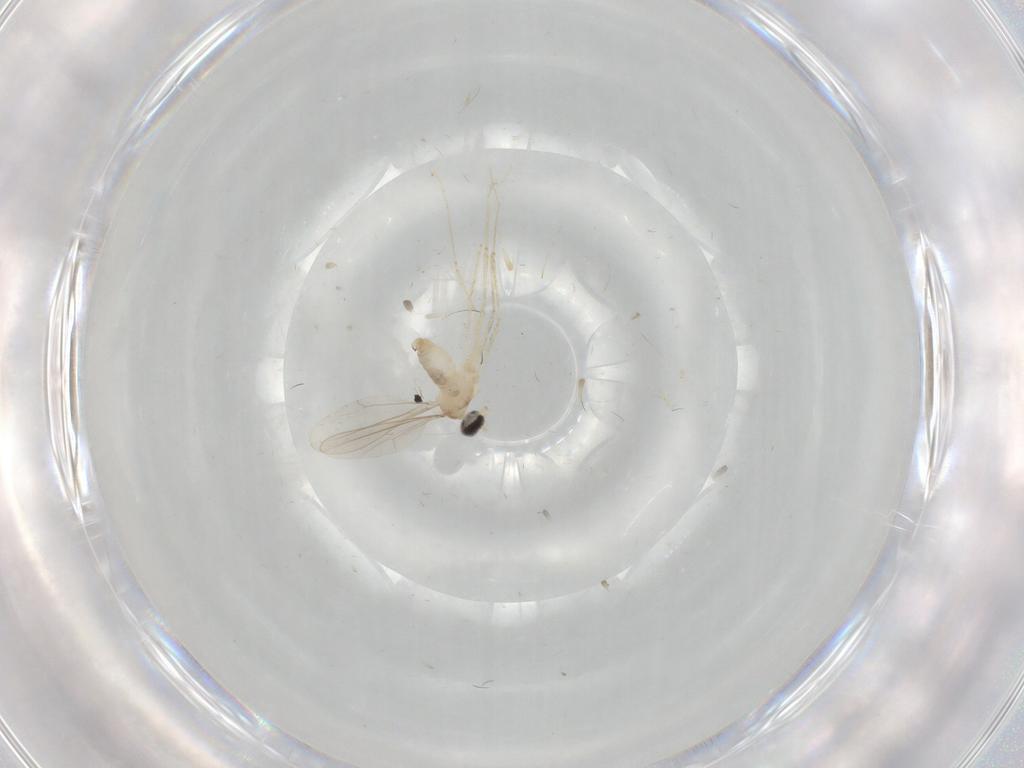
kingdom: Animalia
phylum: Arthropoda
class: Insecta
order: Diptera
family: Cecidomyiidae
